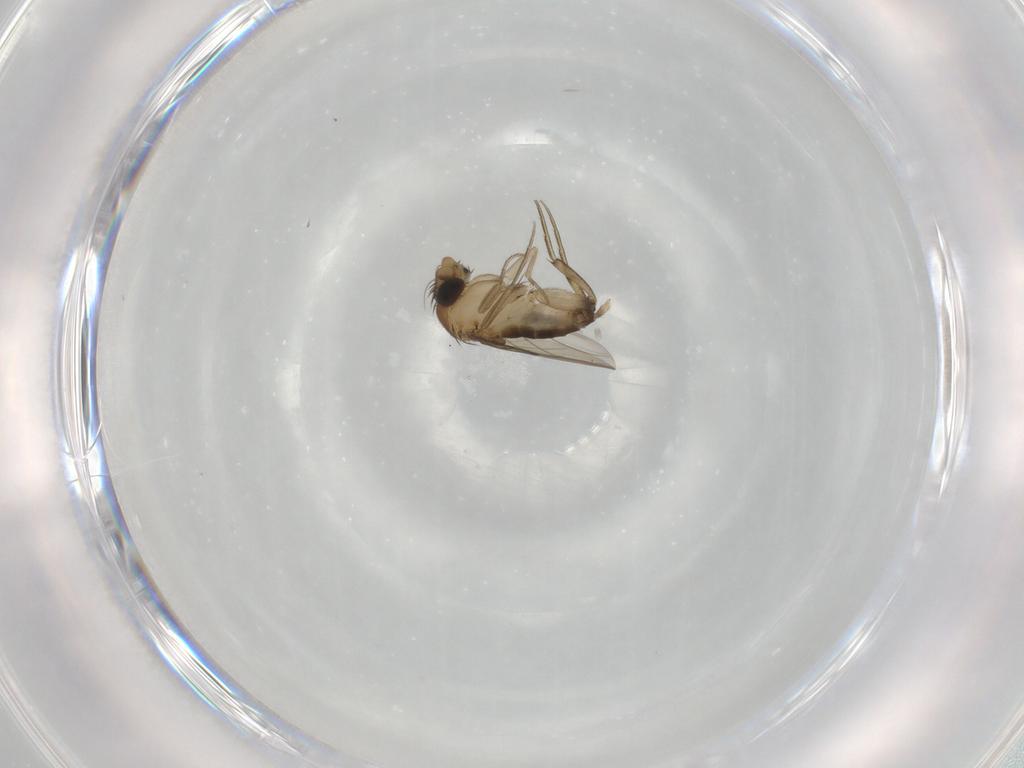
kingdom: Animalia
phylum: Arthropoda
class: Insecta
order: Diptera
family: Phoridae
